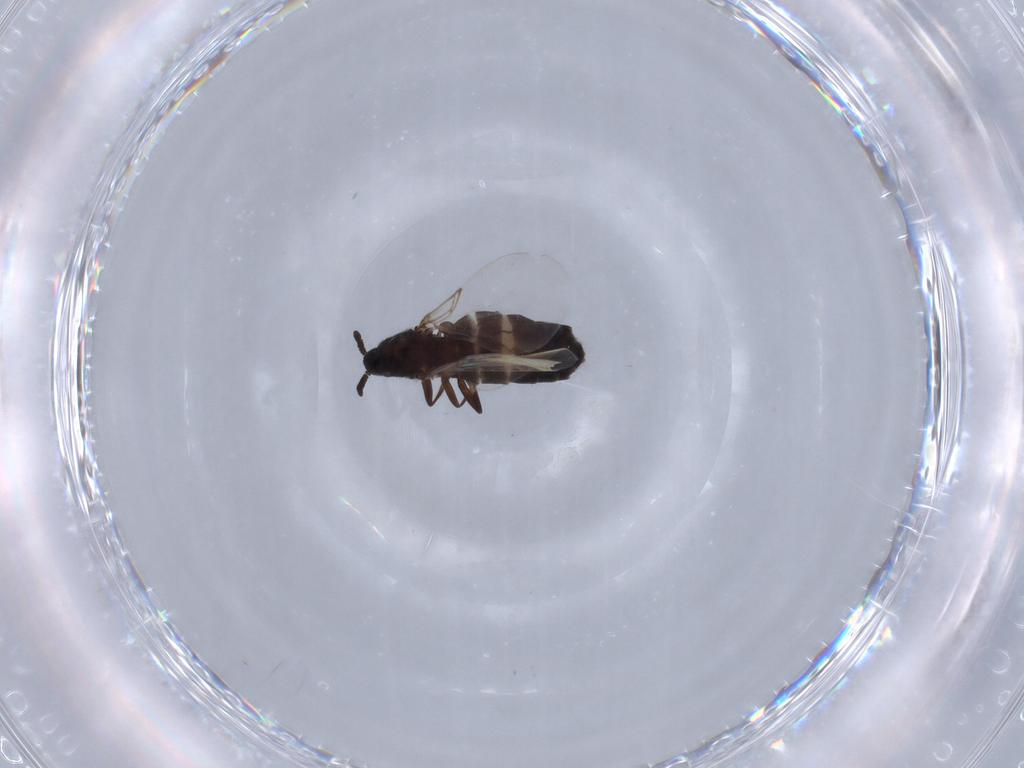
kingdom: Animalia
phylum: Arthropoda
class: Insecta
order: Diptera
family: Scatopsidae
